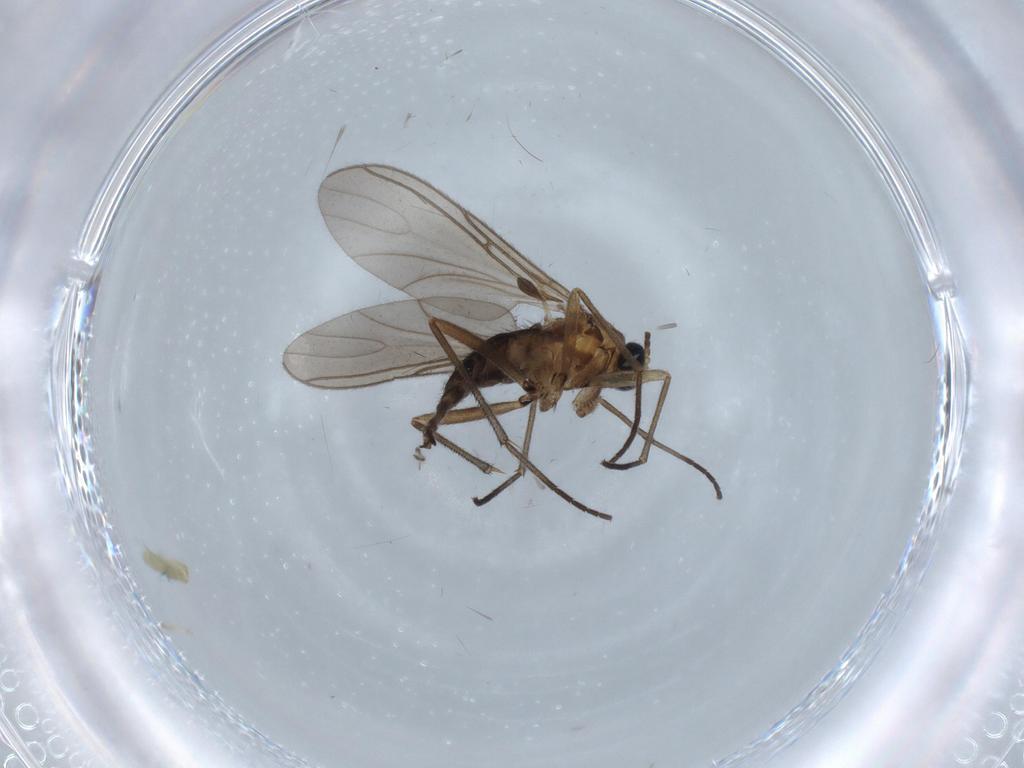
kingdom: Animalia
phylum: Arthropoda
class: Insecta
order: Diptera
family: Sciaridae
